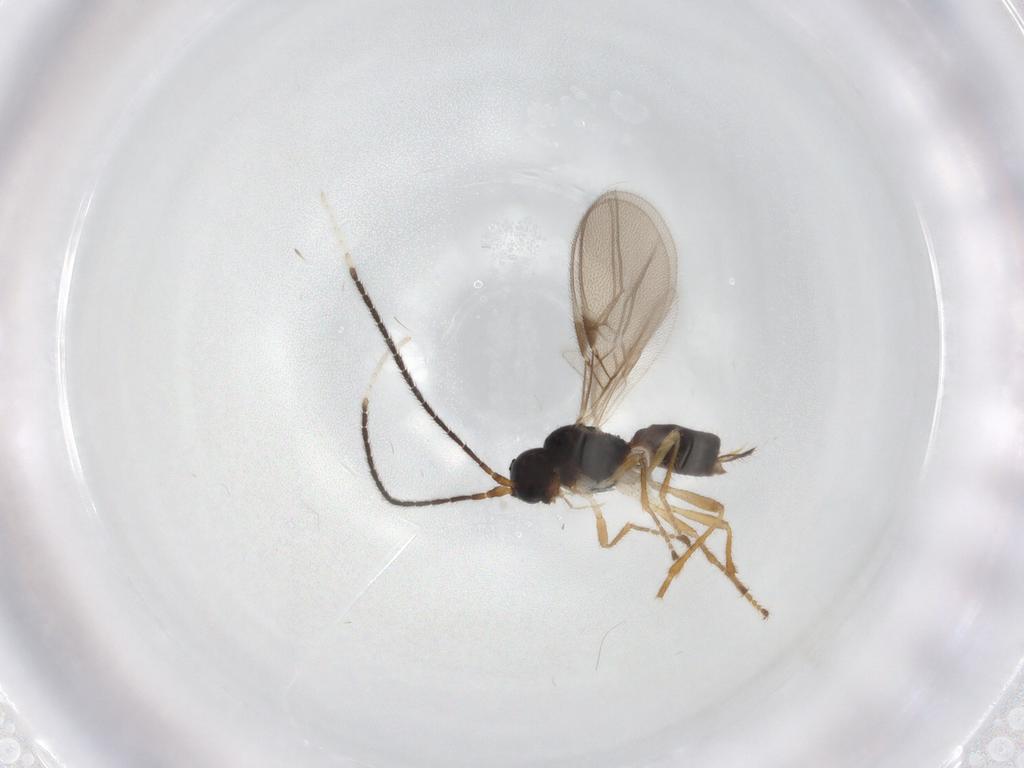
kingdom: Animalia
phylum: Arthropoda
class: Insecta
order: Hymenoptera
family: Braconidae
